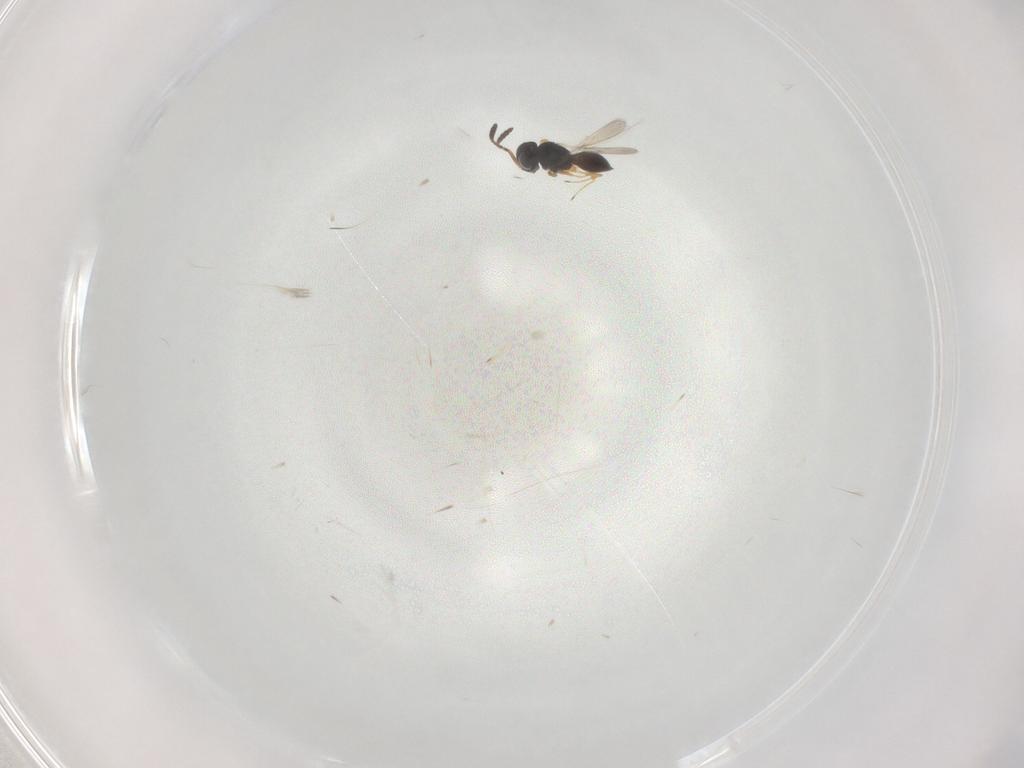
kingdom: Animalia
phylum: Arthropoda
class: Insecta
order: Hymenoptera
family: Scelionidae
